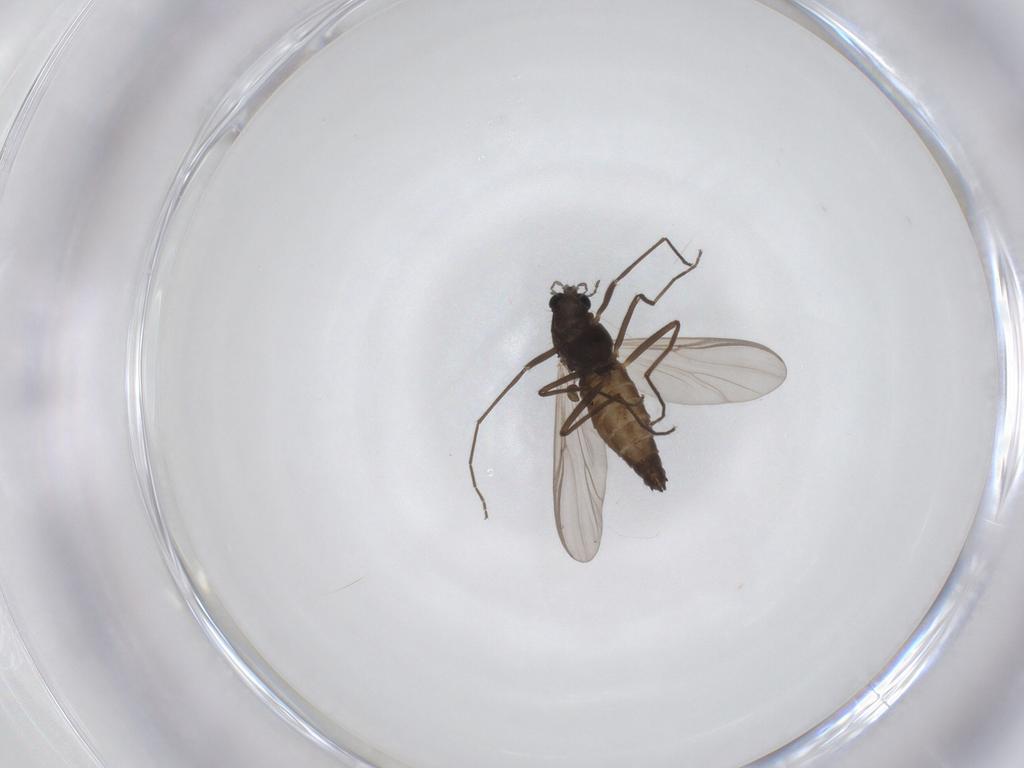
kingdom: Animalia
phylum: Arthropoda
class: Insecta
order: Diptera
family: Chironomidae
